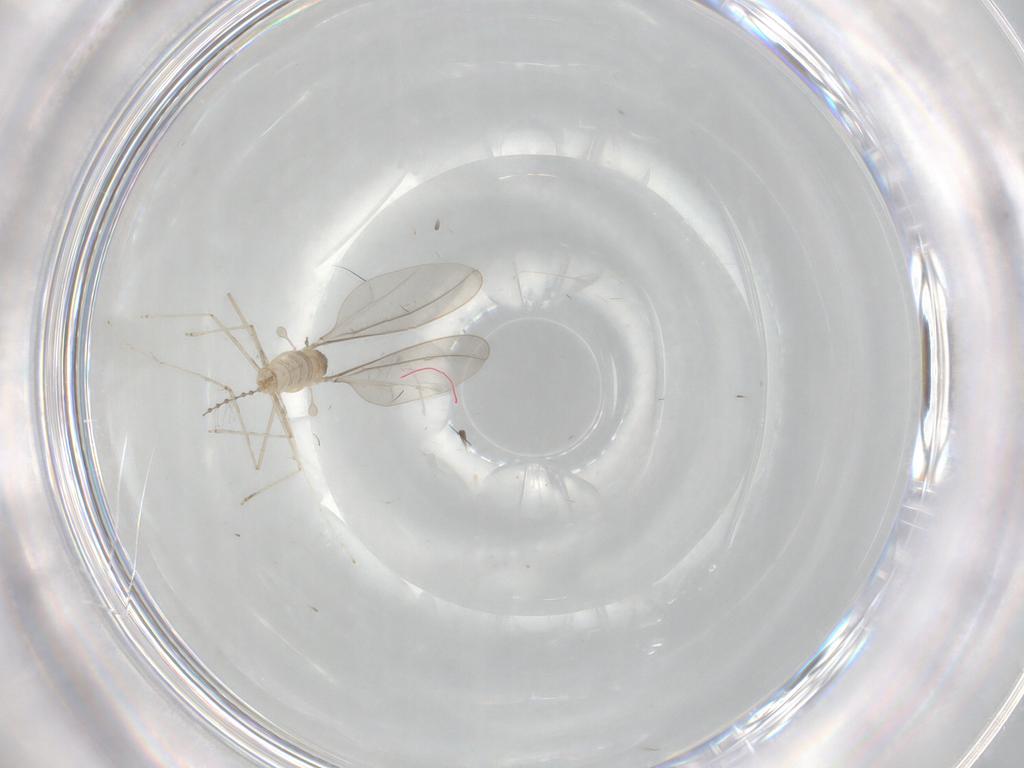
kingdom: Animalia
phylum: Arthropoda
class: Insecta
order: Diptera
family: Cecidomyiidae
